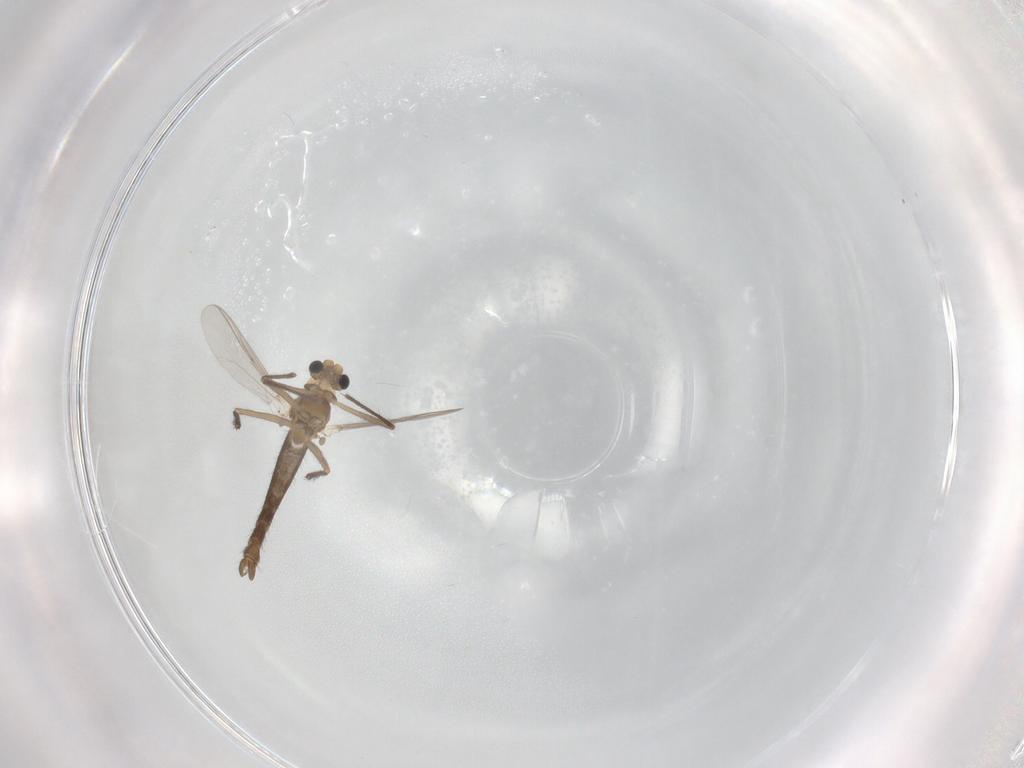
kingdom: Animalia
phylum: Arthropoda
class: Insecta
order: Diptera
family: Chironomidae
